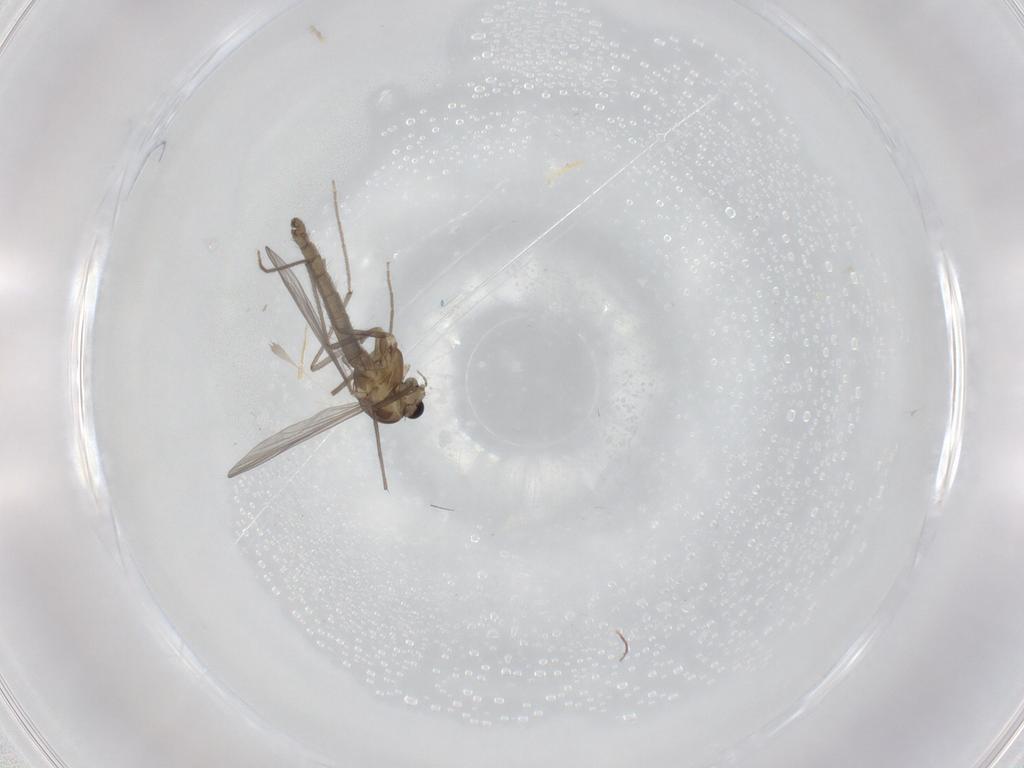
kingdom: Animalia
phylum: Arthropoda
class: Insecta
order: Diptera
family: Chironomidae
